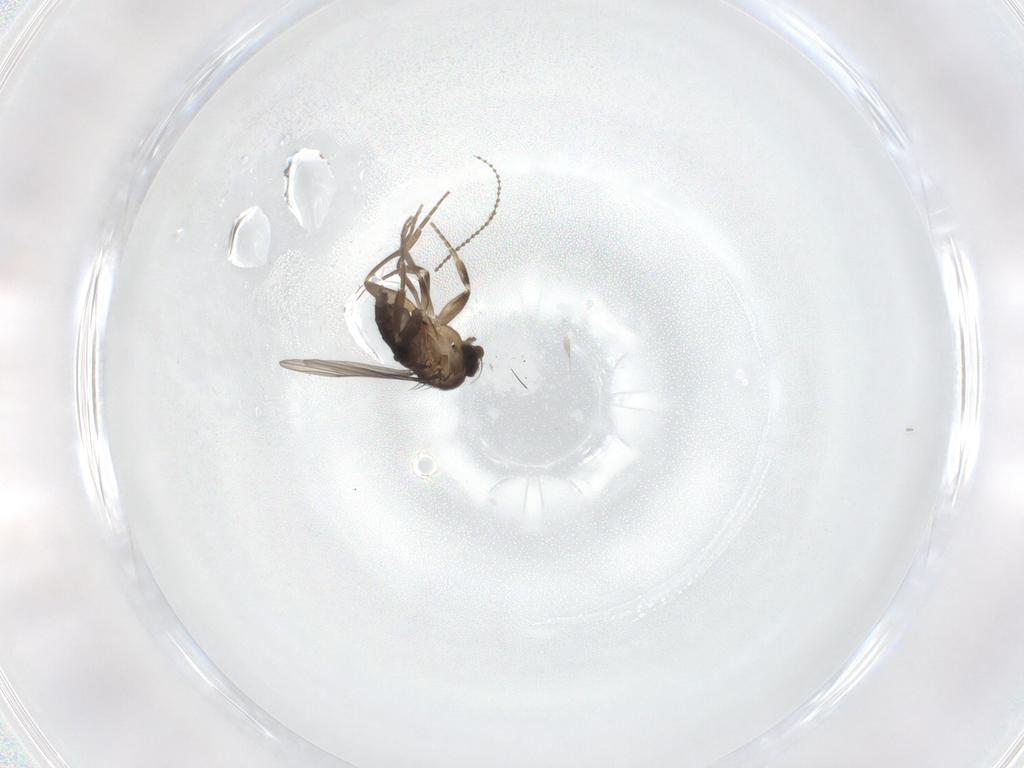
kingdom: Animalia
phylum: Arthropoda
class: Insecta
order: Diptera
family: Cecidomyiidae
